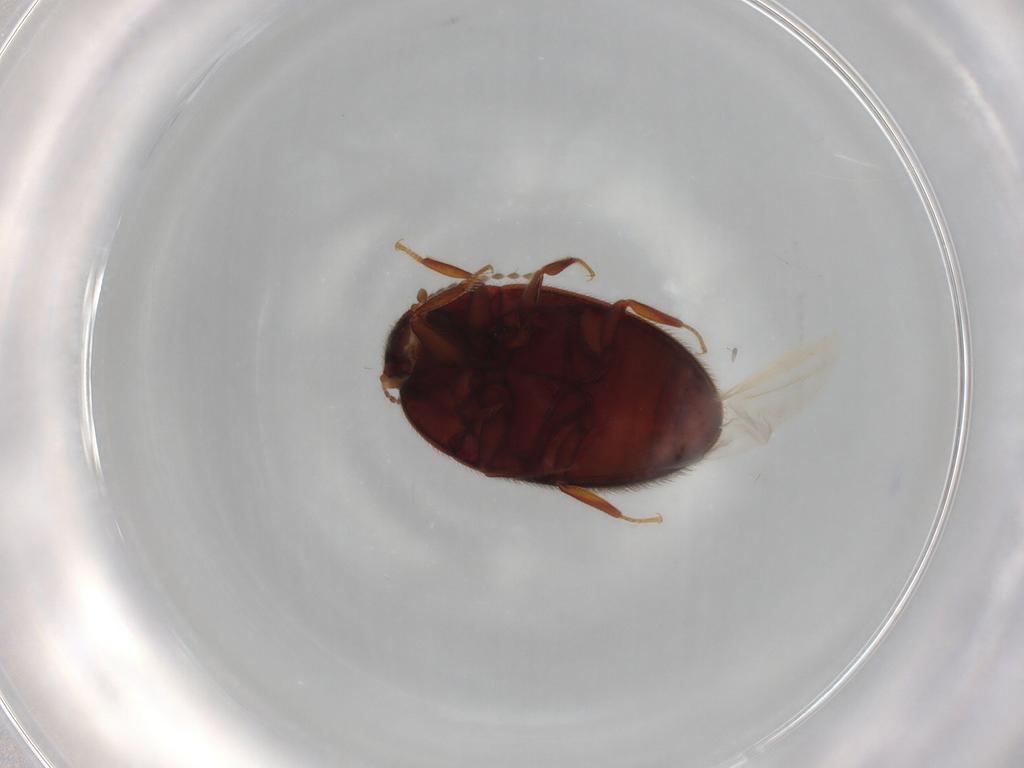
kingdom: Animalia
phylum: Arthropoda
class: Insecta
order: Coleoptera
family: Limnichidae
